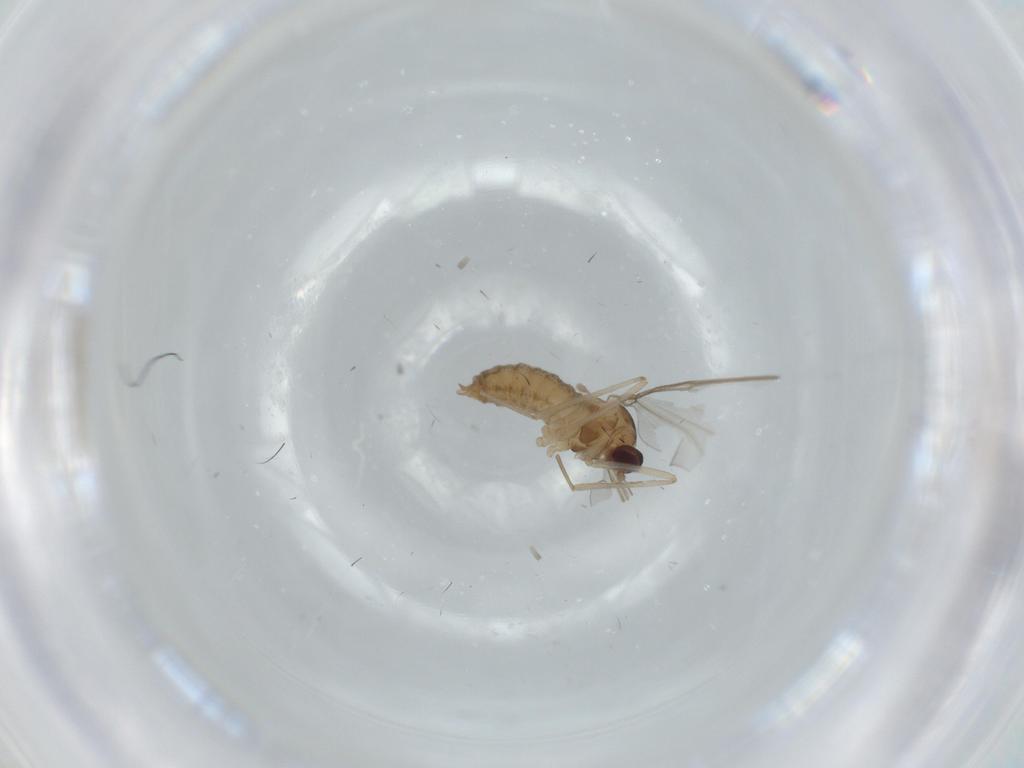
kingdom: Animalia
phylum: Arthropoda
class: Insecta
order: Diptera
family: Cecidomyiidae
